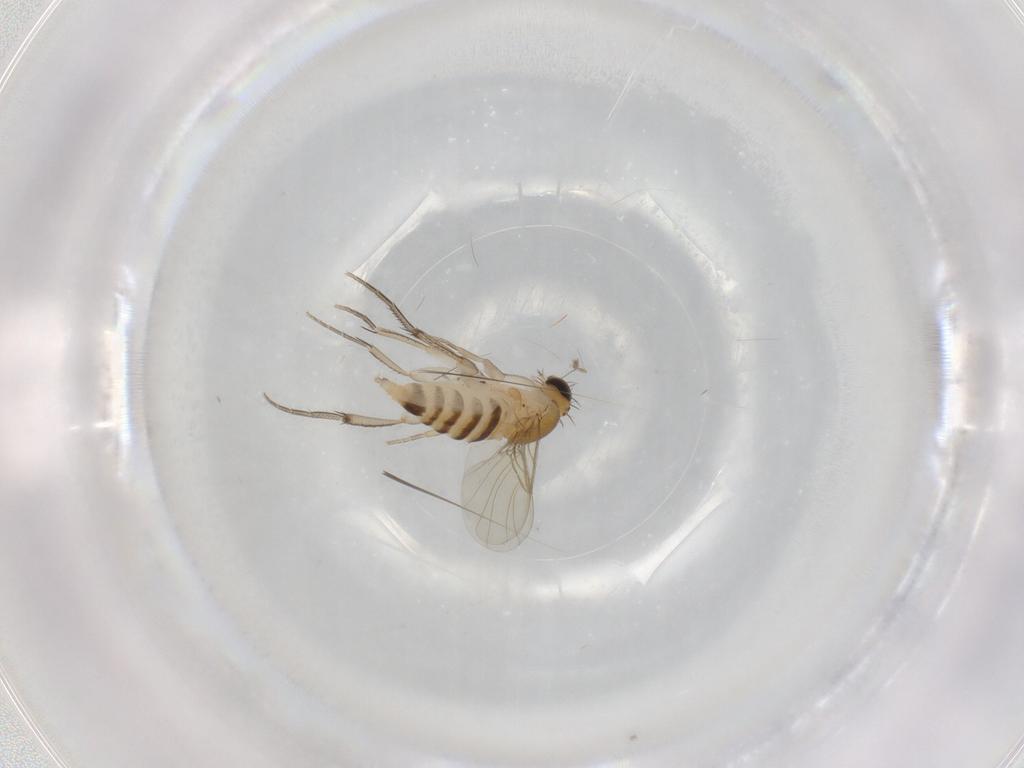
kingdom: Animalia
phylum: Arthropoda
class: Insecta
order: Diptera
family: Phoridae
